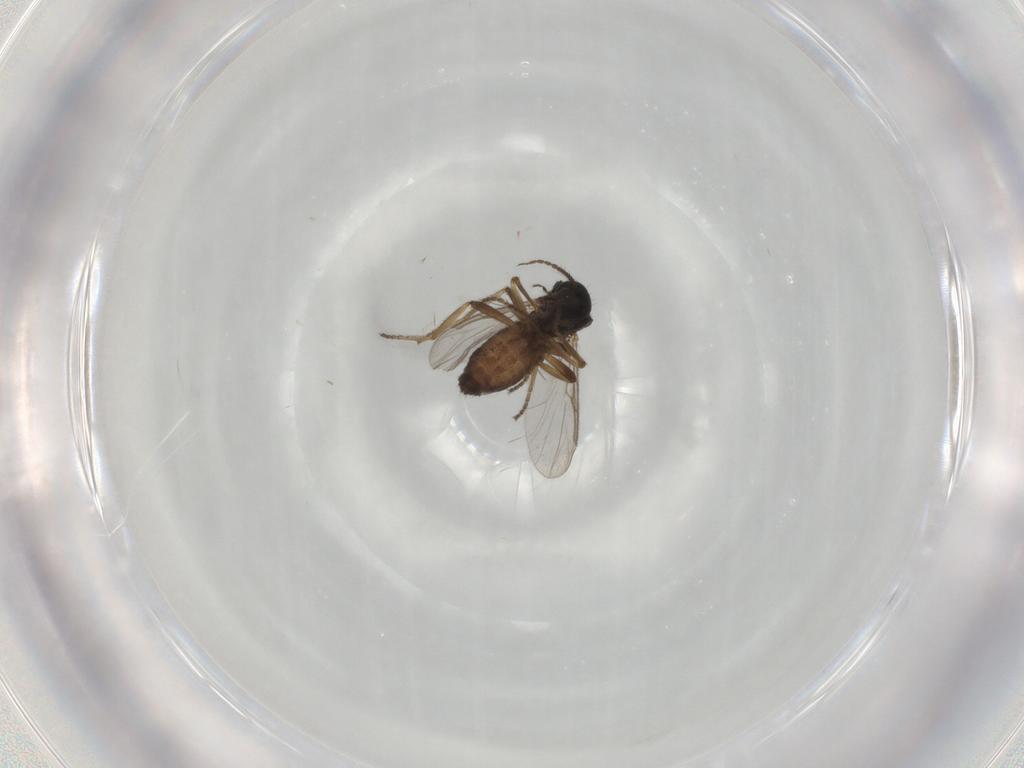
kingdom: Animalia
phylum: Arthropoda
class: Insecta
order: Diptera
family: Ceratopogonidae
